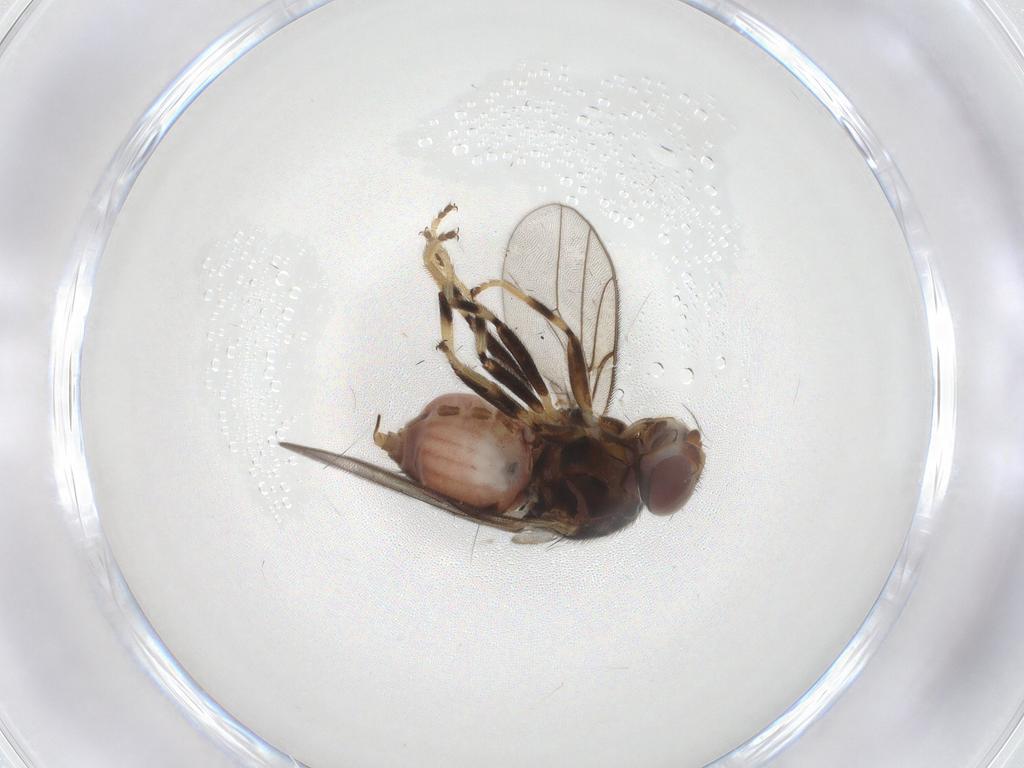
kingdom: Animalia
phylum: Arthropoda
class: Insecta
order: Diptera
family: Chloropidae
